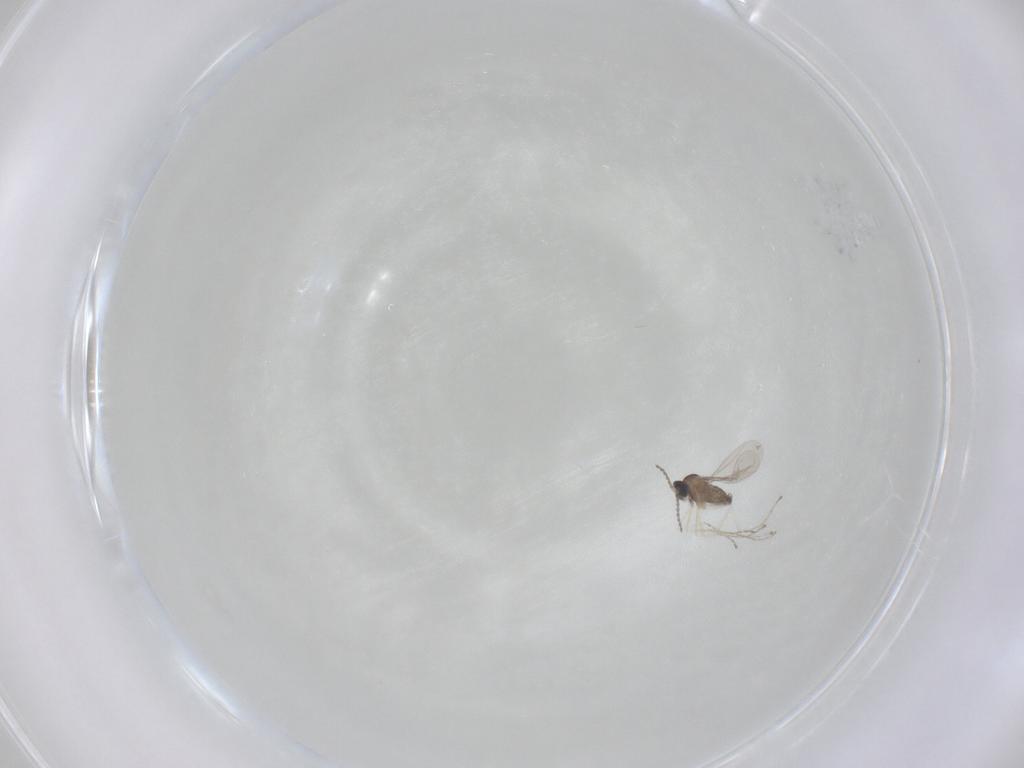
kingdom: Animalia
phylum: Arthropoda
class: Insecta
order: Diptera
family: Cecidomyiidae
